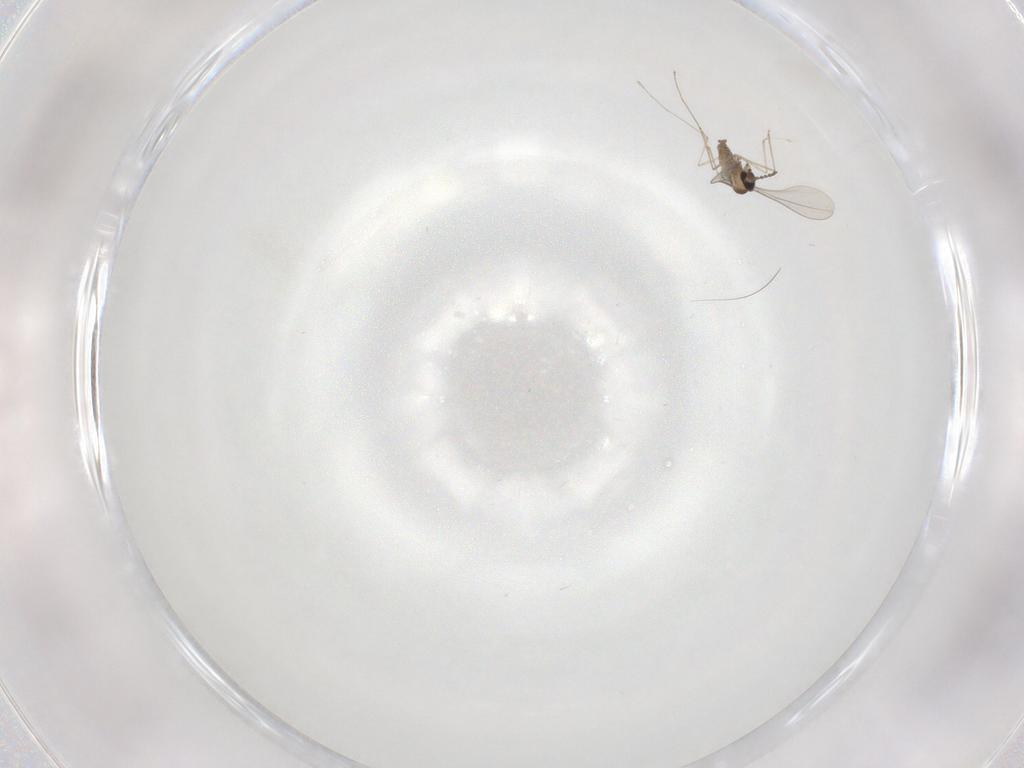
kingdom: Animalia
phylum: Arthropoda
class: Insecta
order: Diptera
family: Cecidomyiidae
